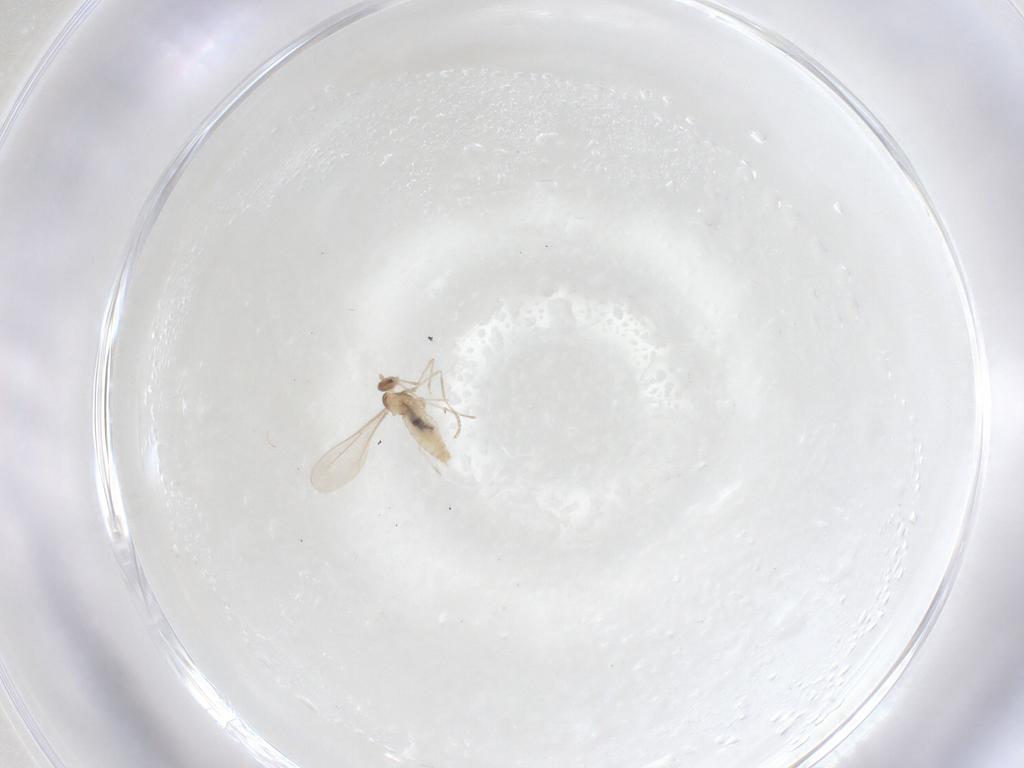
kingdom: Animalia
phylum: Arthropoda
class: Insecta
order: Diptera
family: Cecidomyiidae
